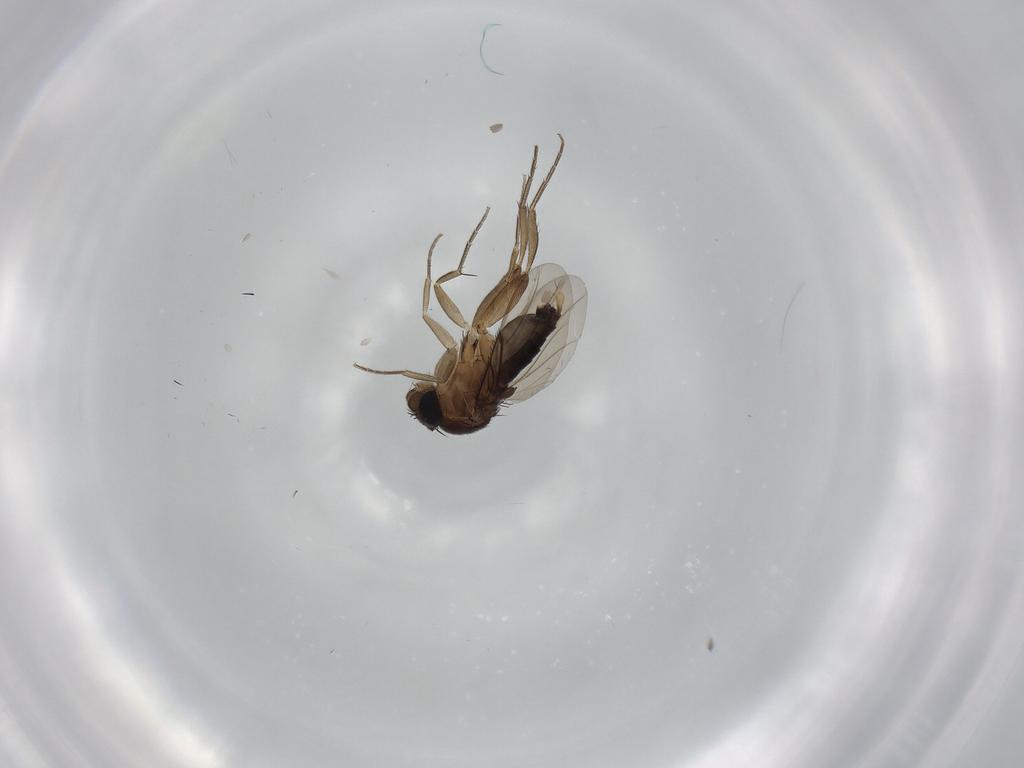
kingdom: Animalia
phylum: Arthropoda
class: Insecta
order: Diptera
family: Phoridae
